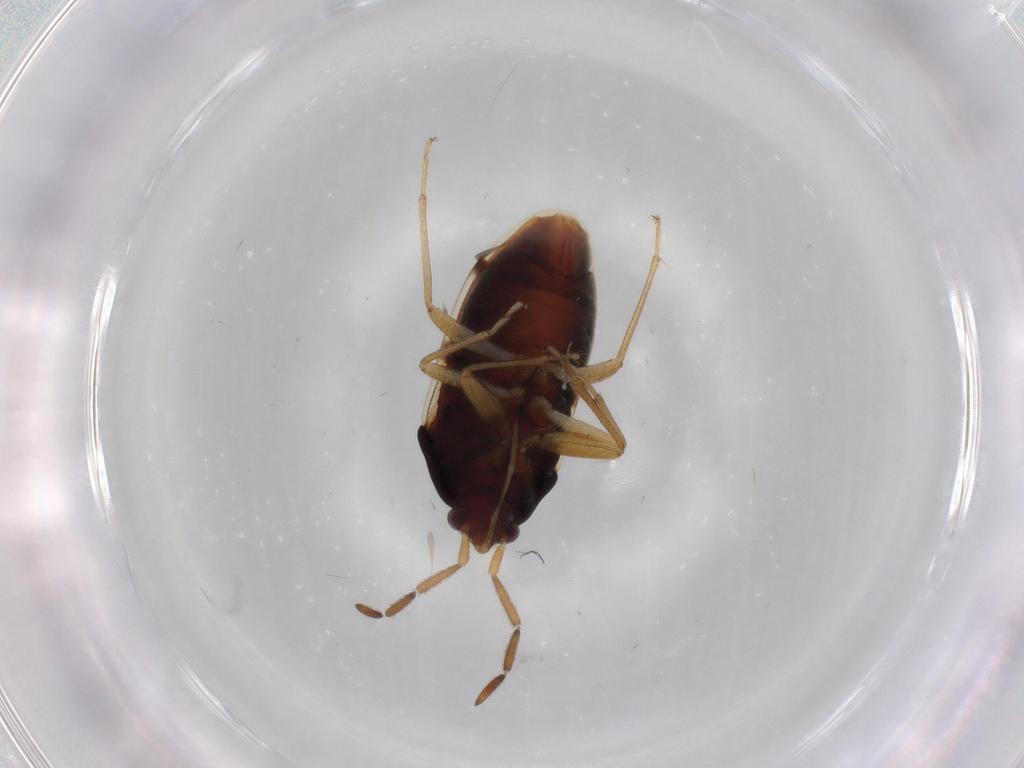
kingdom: Animalia
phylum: Arthropoda
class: Insecta
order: Hemiptera
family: Rhyparochromidae
